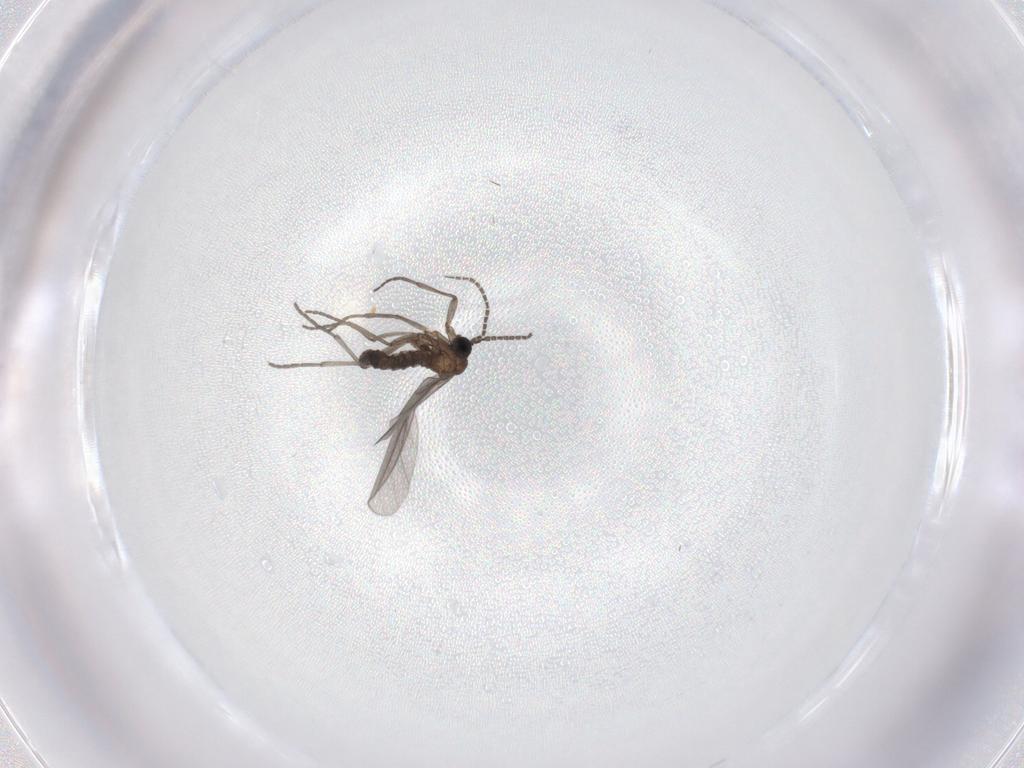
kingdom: Animalia
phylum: Arthropoda
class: Insecta
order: Diptera
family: Sciaridae
